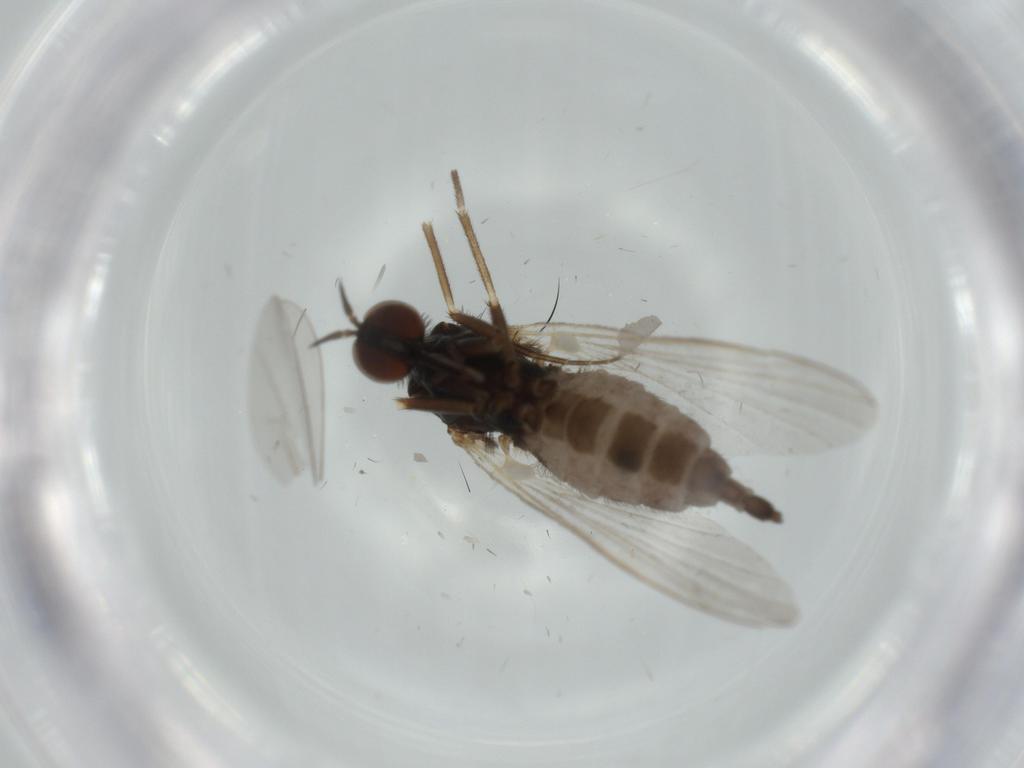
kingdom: Animalia
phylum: Arthropoda
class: Insecta
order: Diptera
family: Empididae
